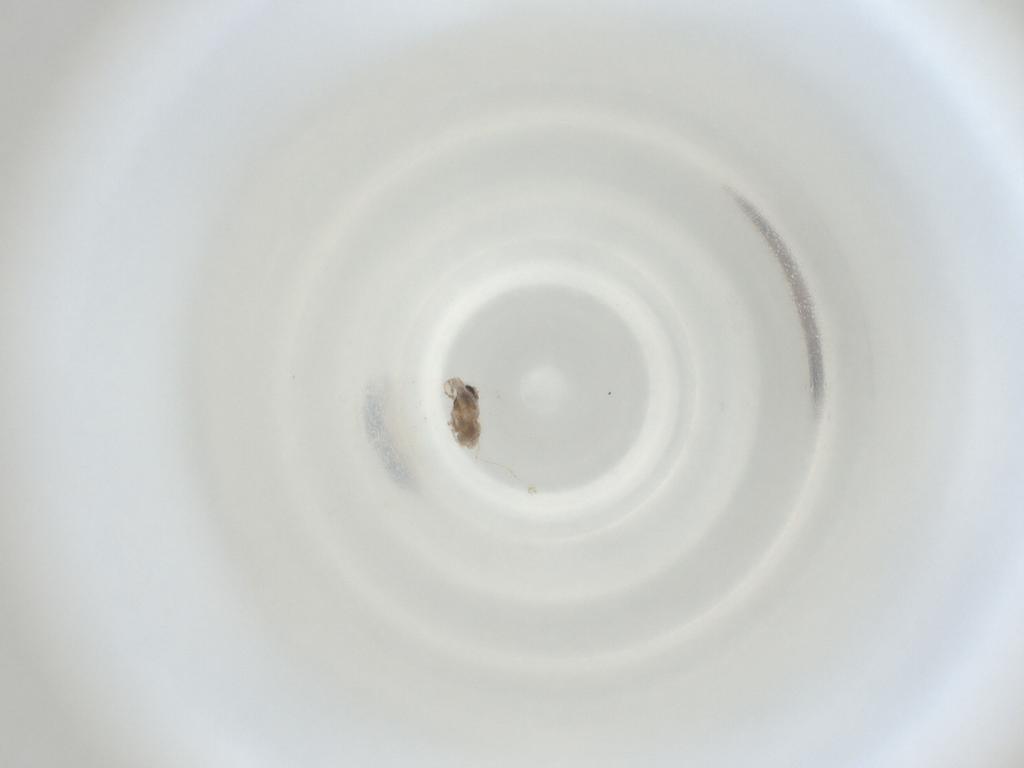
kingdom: Animalia
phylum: Arthropoda
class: Insecta
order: Diptera
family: Cecidomyiidae
